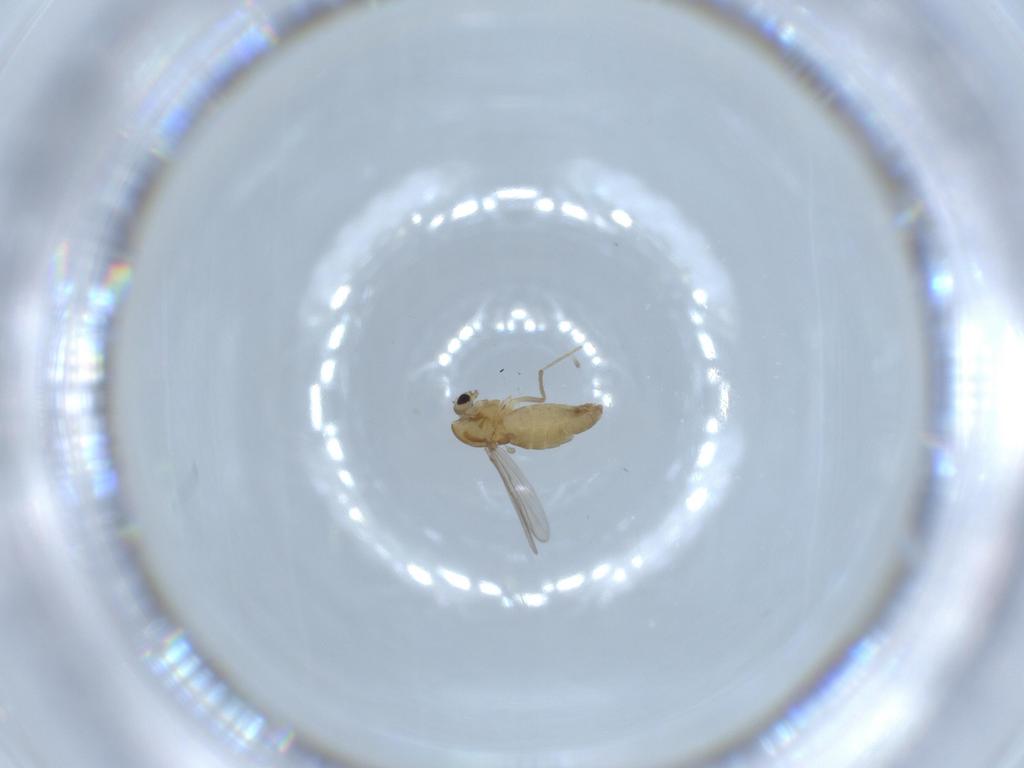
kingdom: Animalia
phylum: Arthropoda
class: Insecta
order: Diptera
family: Chironomidae
